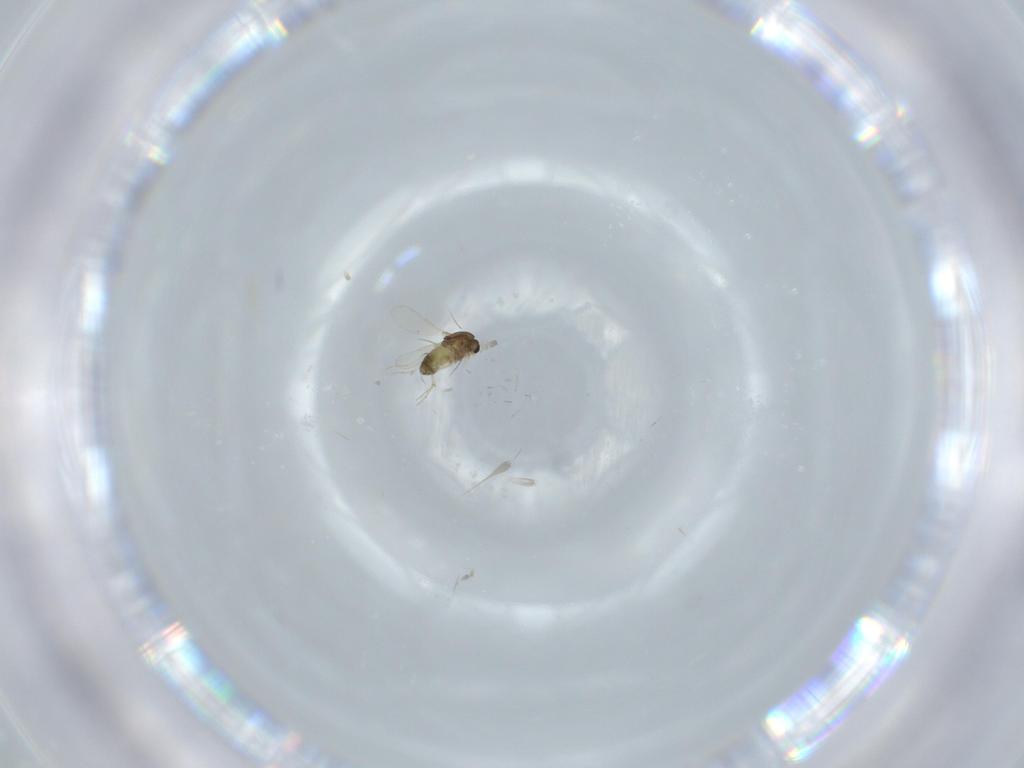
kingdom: Animalia
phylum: Arthropoda
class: Insecta
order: Diptera
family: Chironomidae
